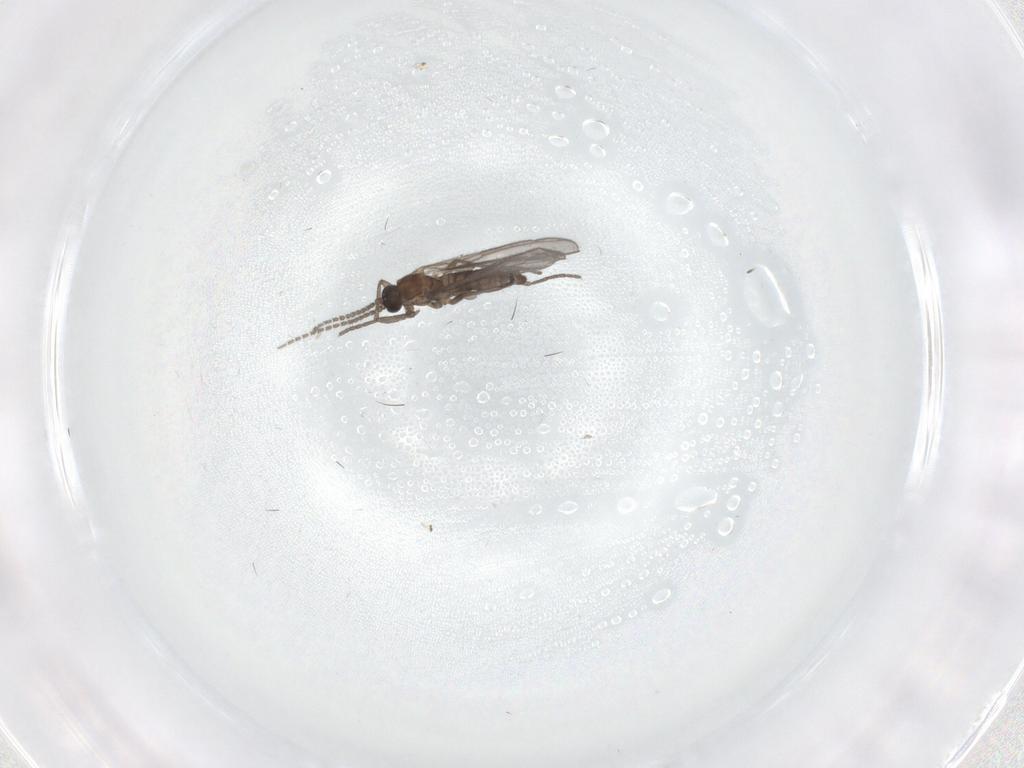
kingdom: Animalia
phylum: Arthropoda
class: Insecta
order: Diptera
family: Sciaridae
